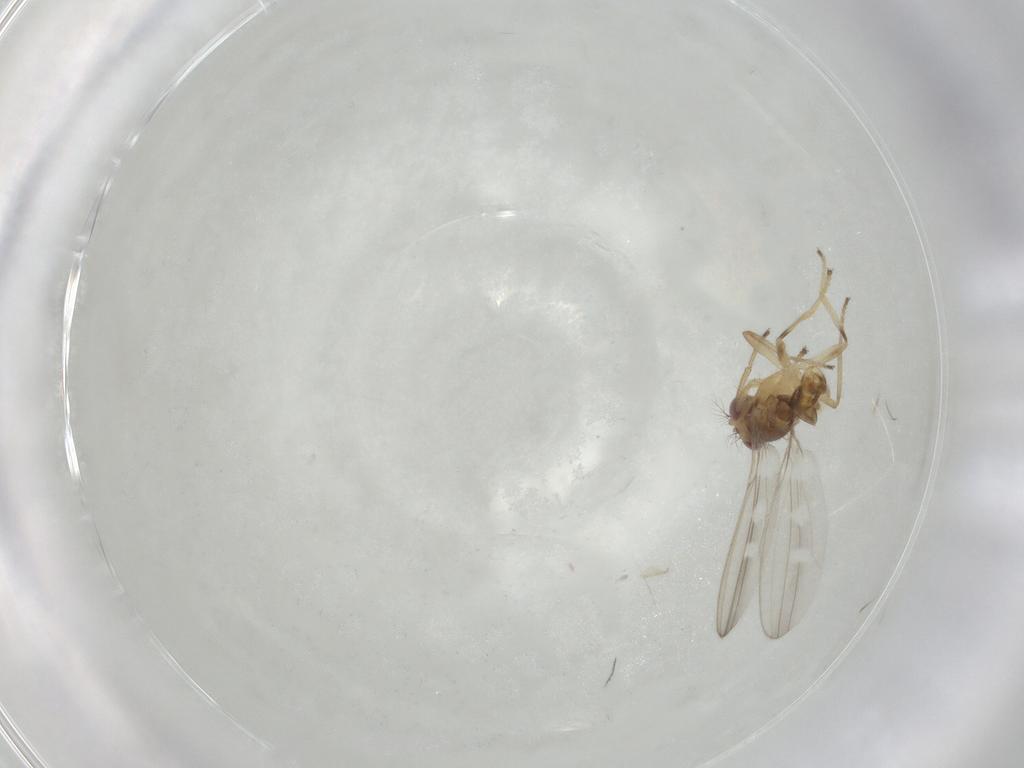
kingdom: Animalia
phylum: Arthropoda
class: Insecta
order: Diptera
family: Periscelididae
